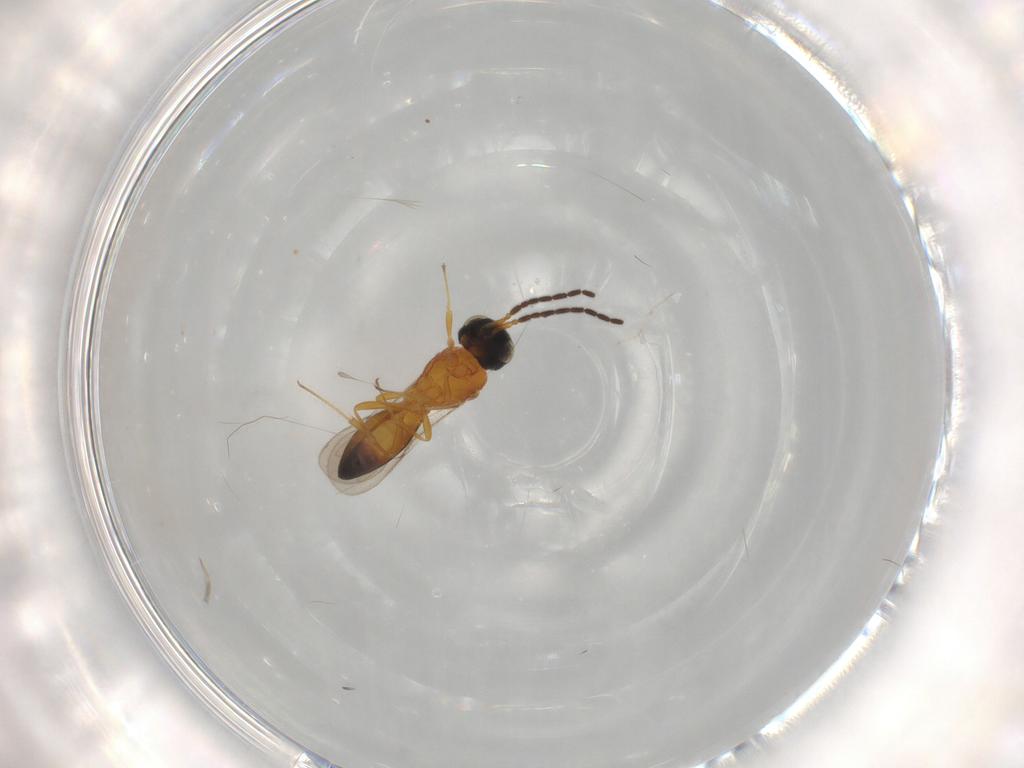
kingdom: Animalia
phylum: Arthropoda
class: Insecta
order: Hymenoptera
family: Scelionidae
